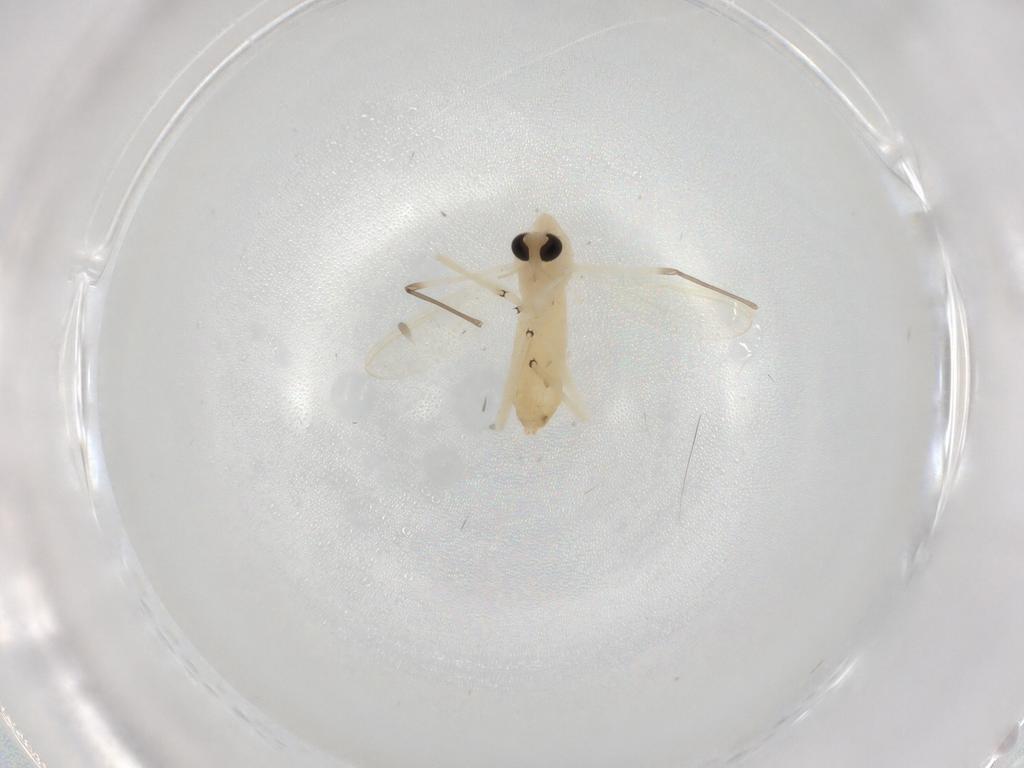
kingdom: Animalia
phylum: Arthropoda
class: Insecta
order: Diptera
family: Chironomidae
